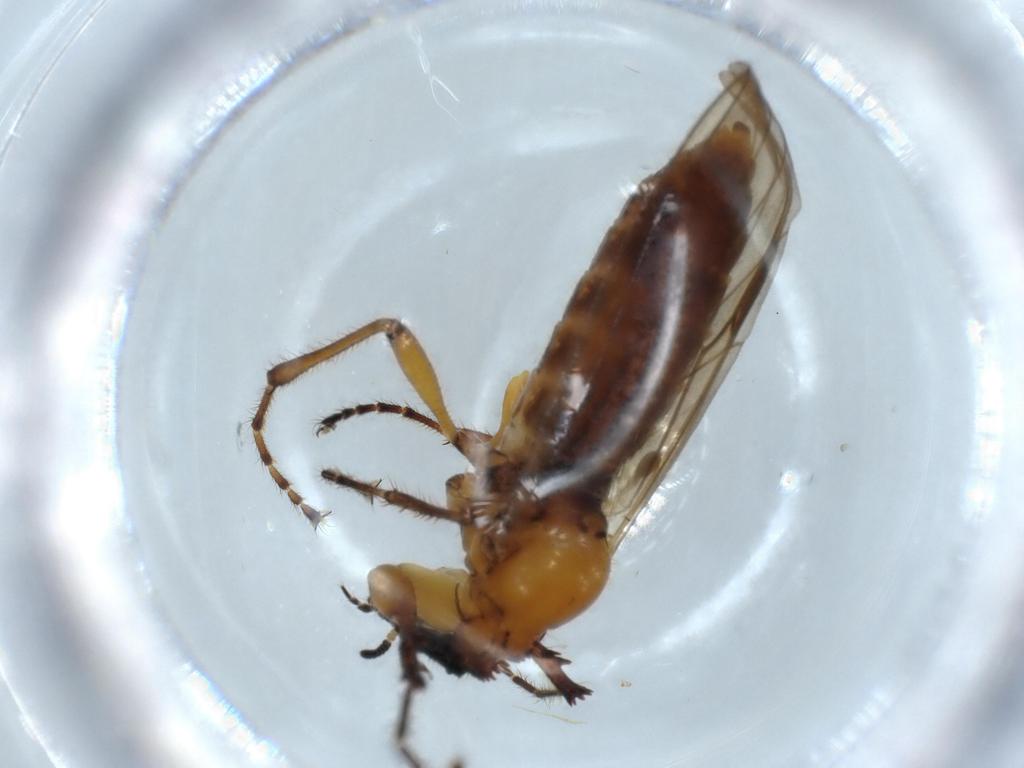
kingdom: Animalia
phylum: Arthropoda
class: Insecta
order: Diptera
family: Bibionidae
